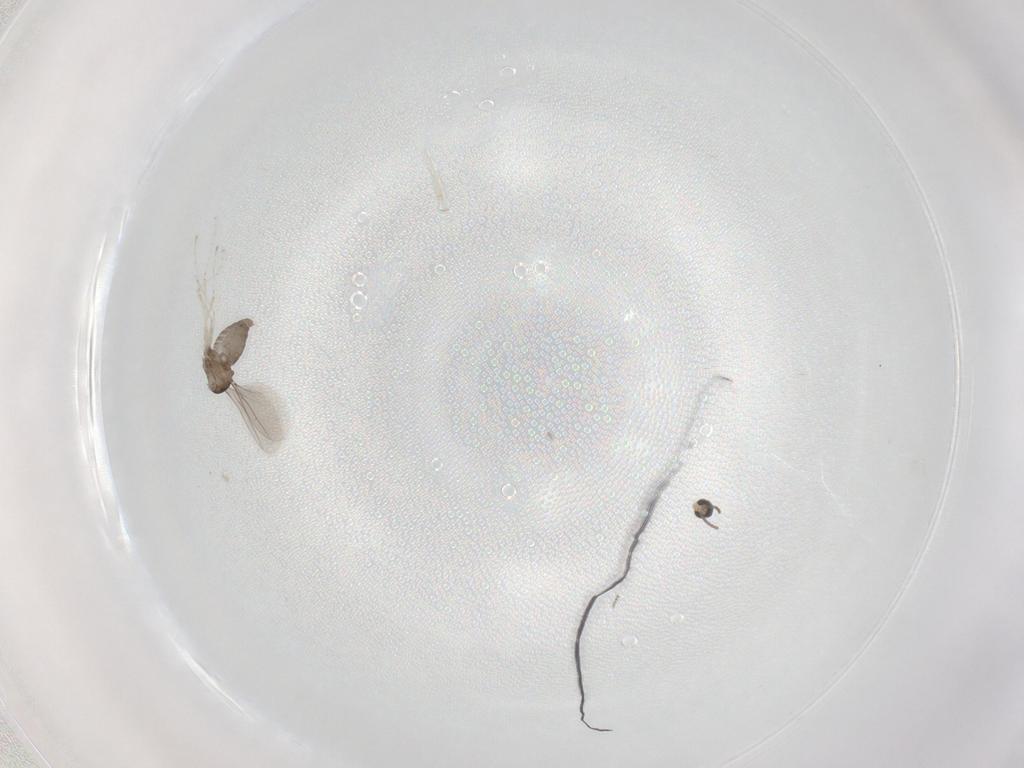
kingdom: Animalia
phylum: Arthropoda
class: Insecta
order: Diptera
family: Cecidomyiidae
